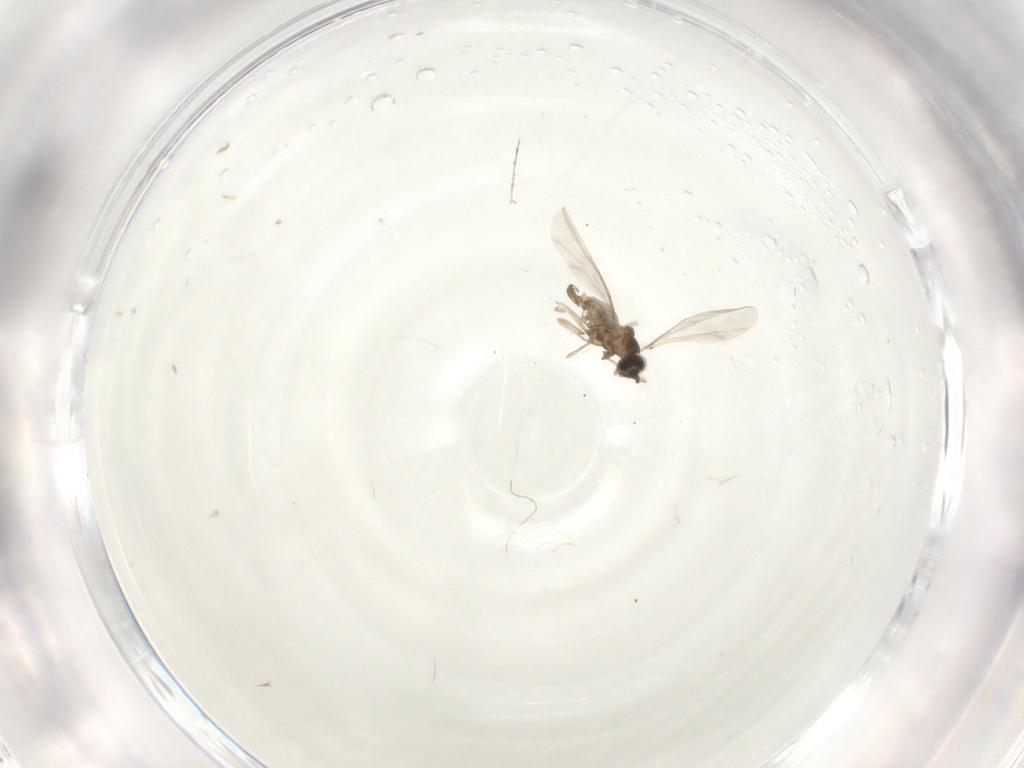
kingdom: Animalia
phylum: Arthropoda
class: Insecta
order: Diptera
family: Cecidomyiidae
